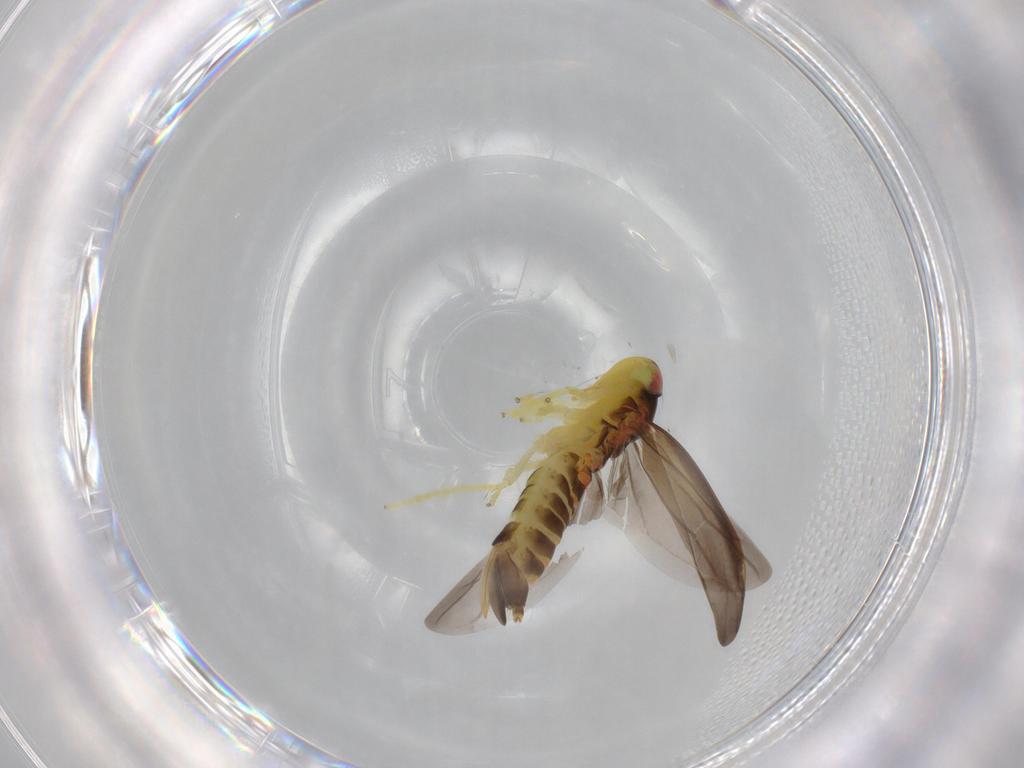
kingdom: Animalia
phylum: Arthropoda
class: Insecta
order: Hemiptera
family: Cicadellidae
